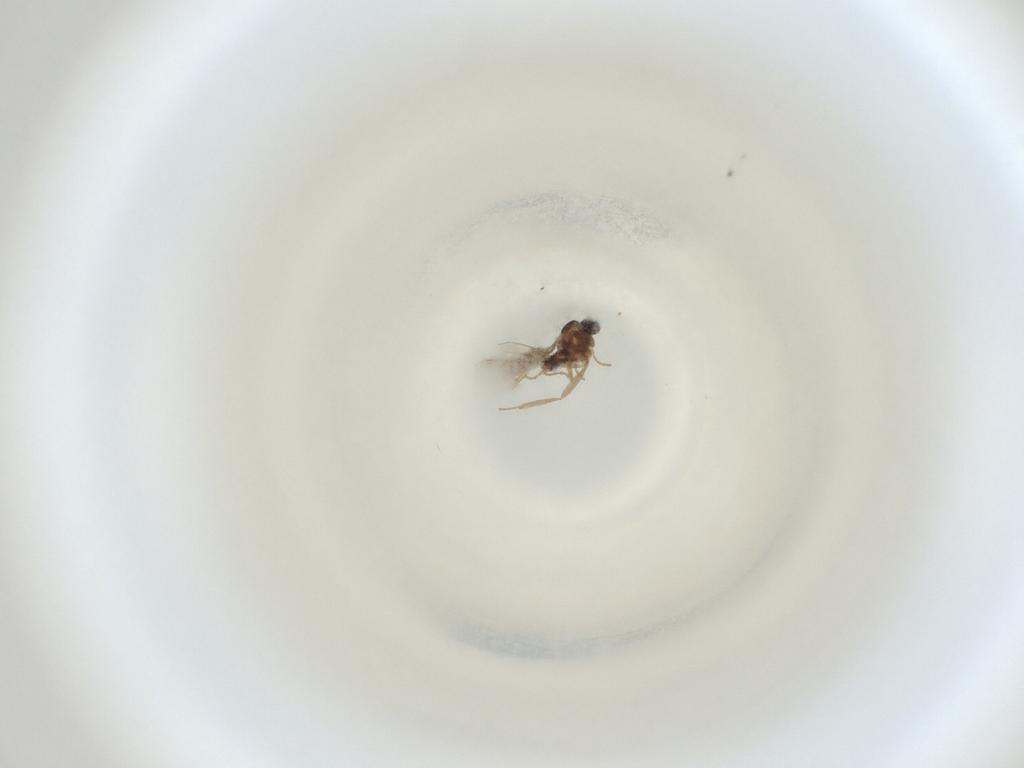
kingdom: Animalia
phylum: Arthropoda
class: Insecta
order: Diptera
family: Cecidomyiidae
